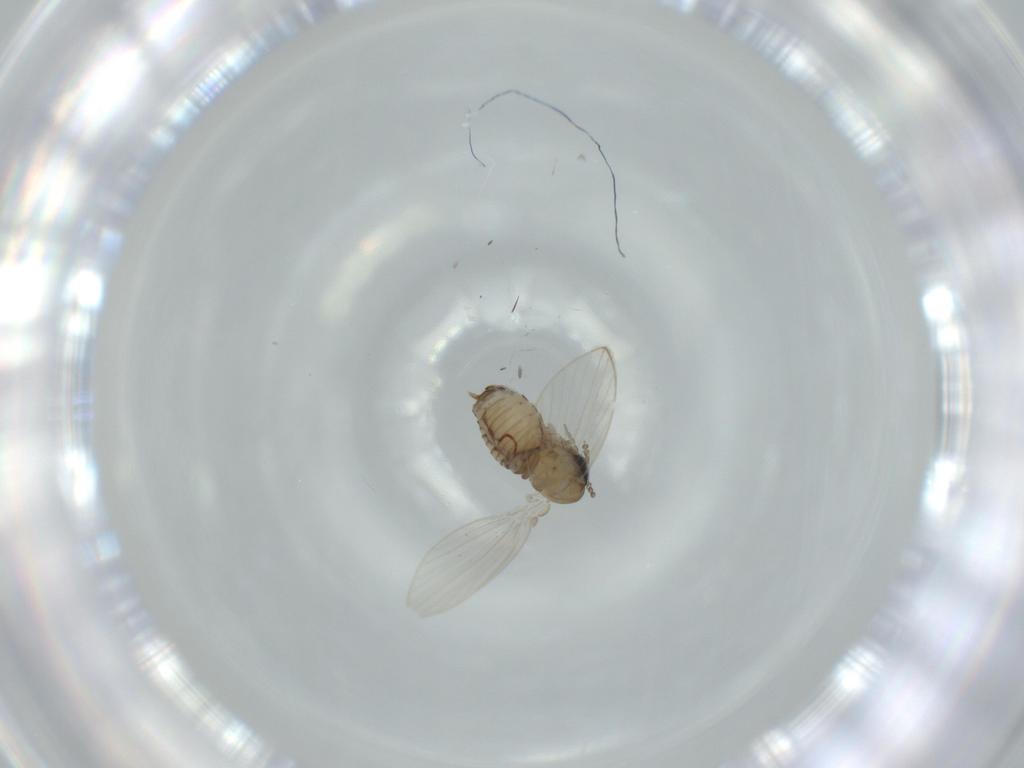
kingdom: Animalia
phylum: Arthropoda
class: Insecta
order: Diptera
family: Psychodidae
